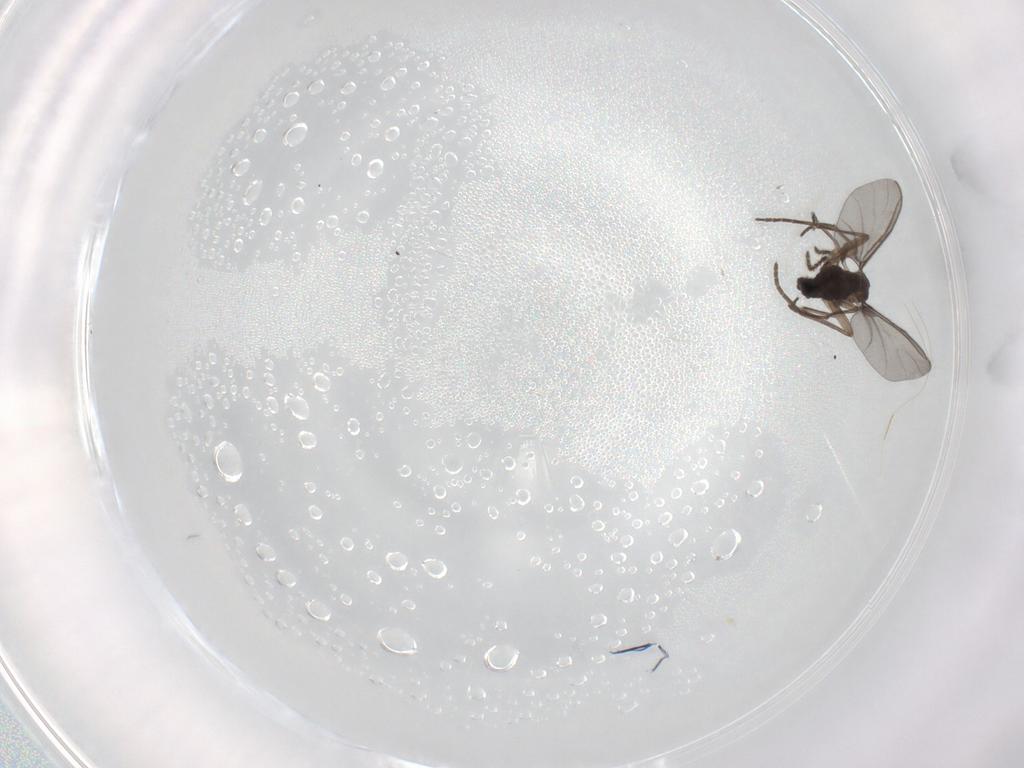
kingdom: Animalia
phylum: Arthropoda
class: Insecta
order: Diptera
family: Sciaridae
